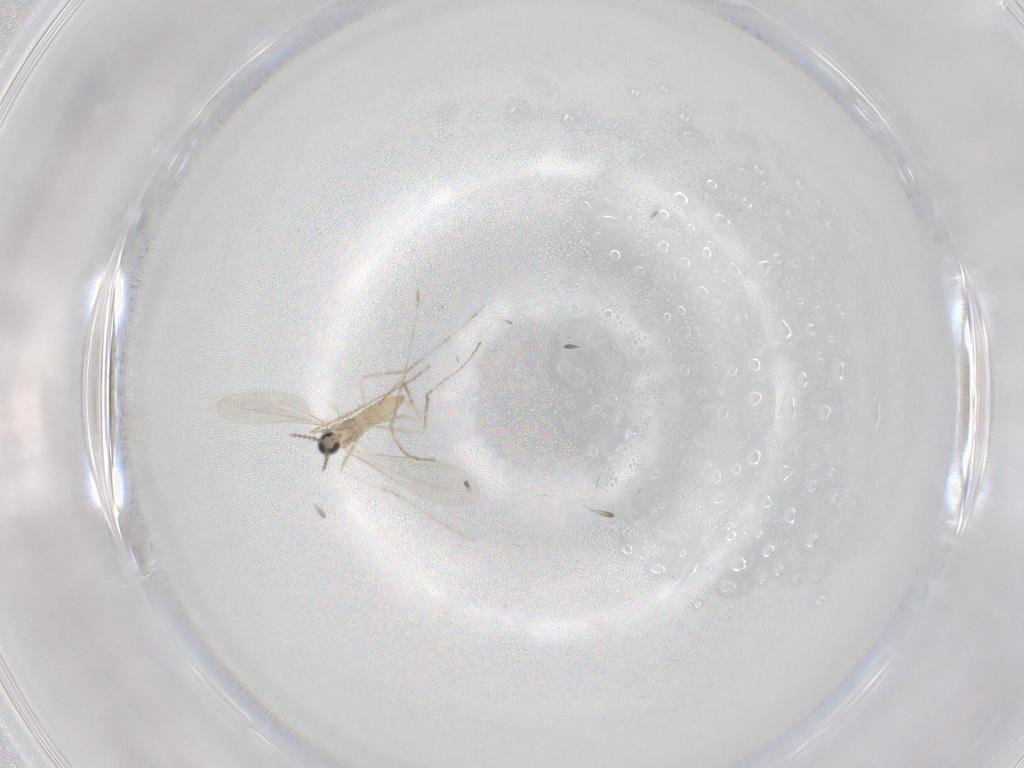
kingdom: Animalia
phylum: Arthropoda
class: Insecta
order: Diptera
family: Cecidomyiidae
